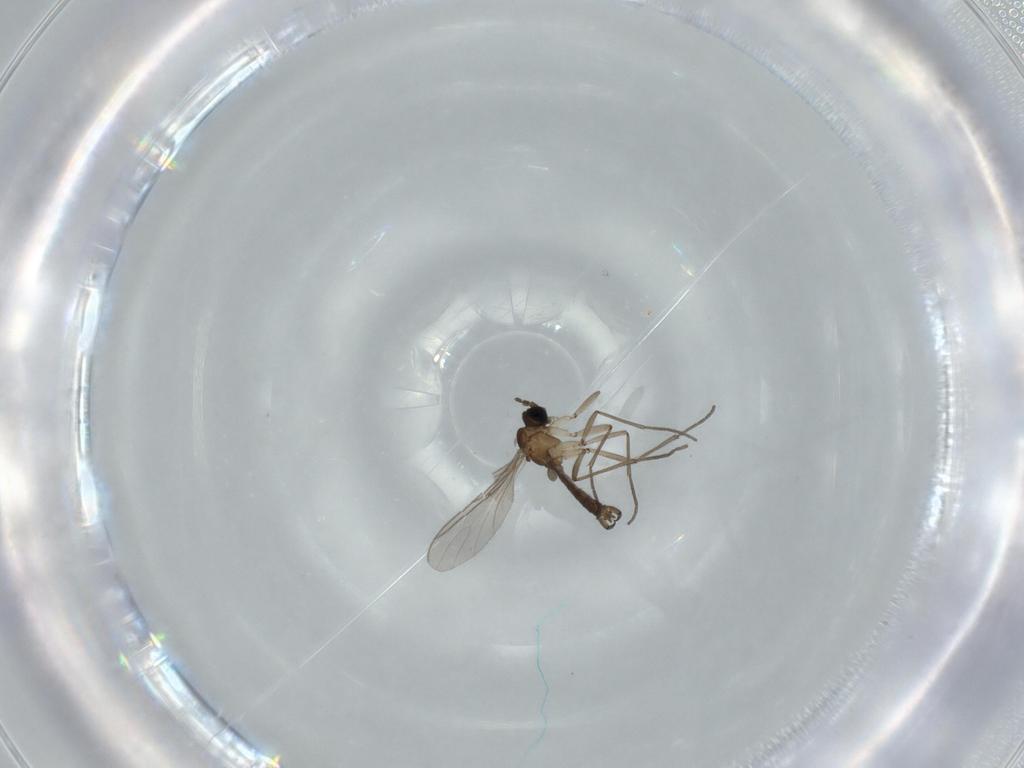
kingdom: Animalia
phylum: Arthropoda
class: Insecta
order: Diptera
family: Sciaridae
